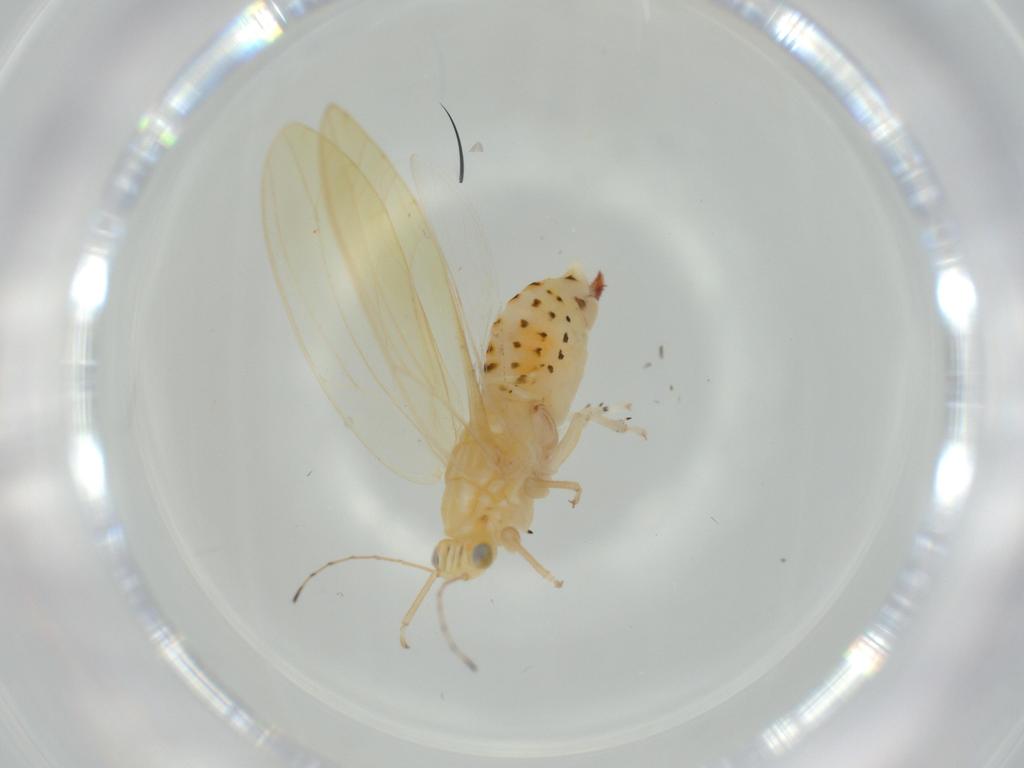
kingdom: Animalia
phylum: Arthropoda
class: Insecta
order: Hemiptera
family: Triozidae
